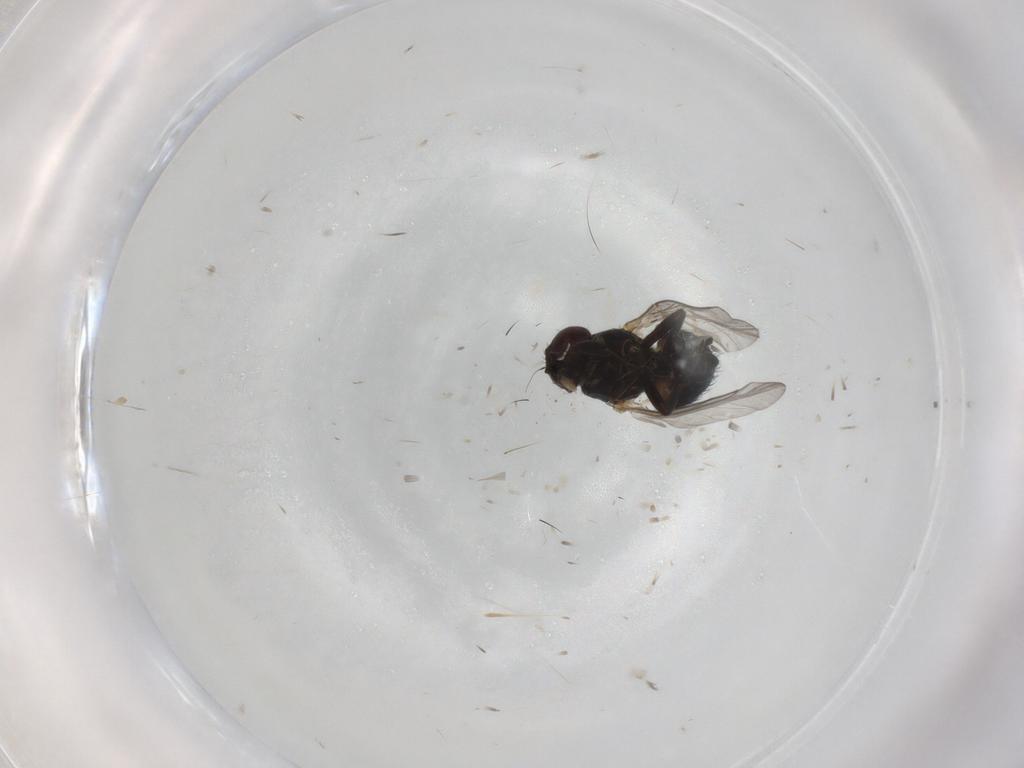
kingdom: Animalia
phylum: Arthropoda
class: Insecta
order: Diptera
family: Platystomatidae
